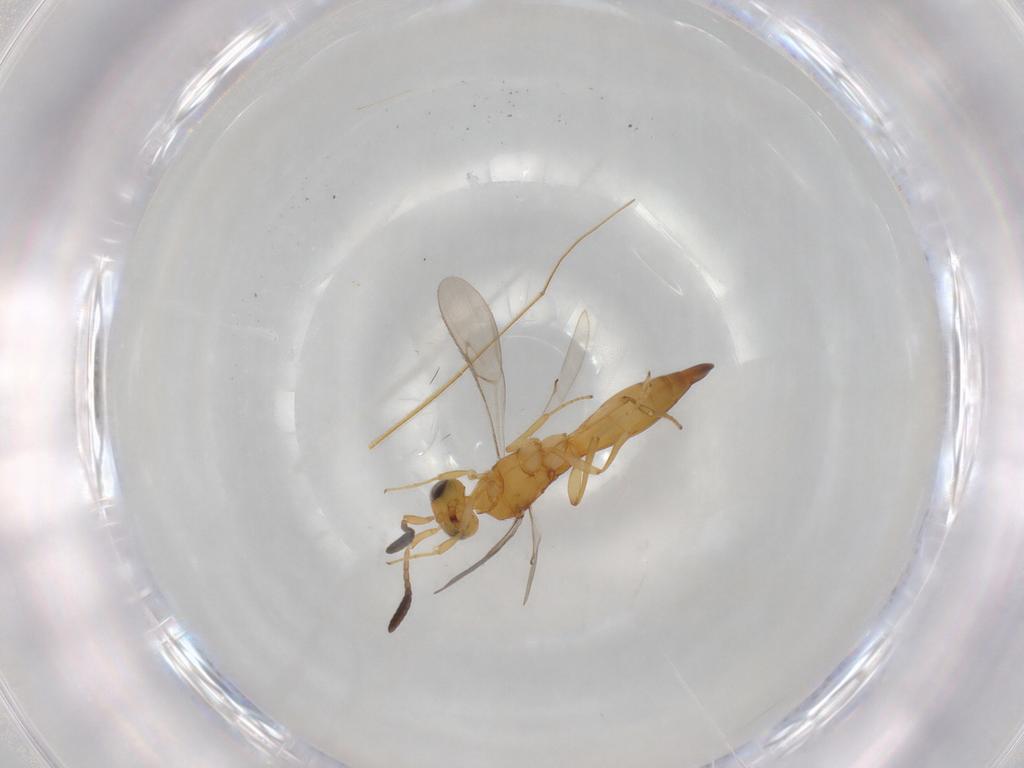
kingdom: Animalia
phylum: Arthropoda
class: Insecta
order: Hymenoptera
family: Scelionidae
